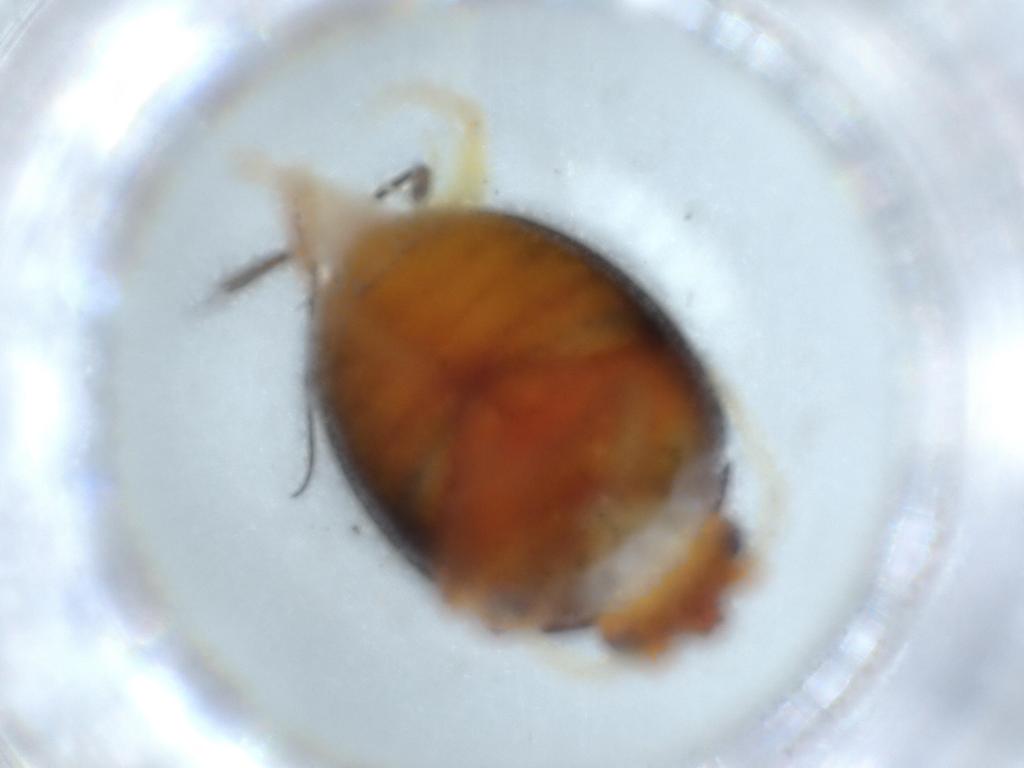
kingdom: Animalia
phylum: Arthropoda
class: Insecta
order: Coleoptera
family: Scirtidae
